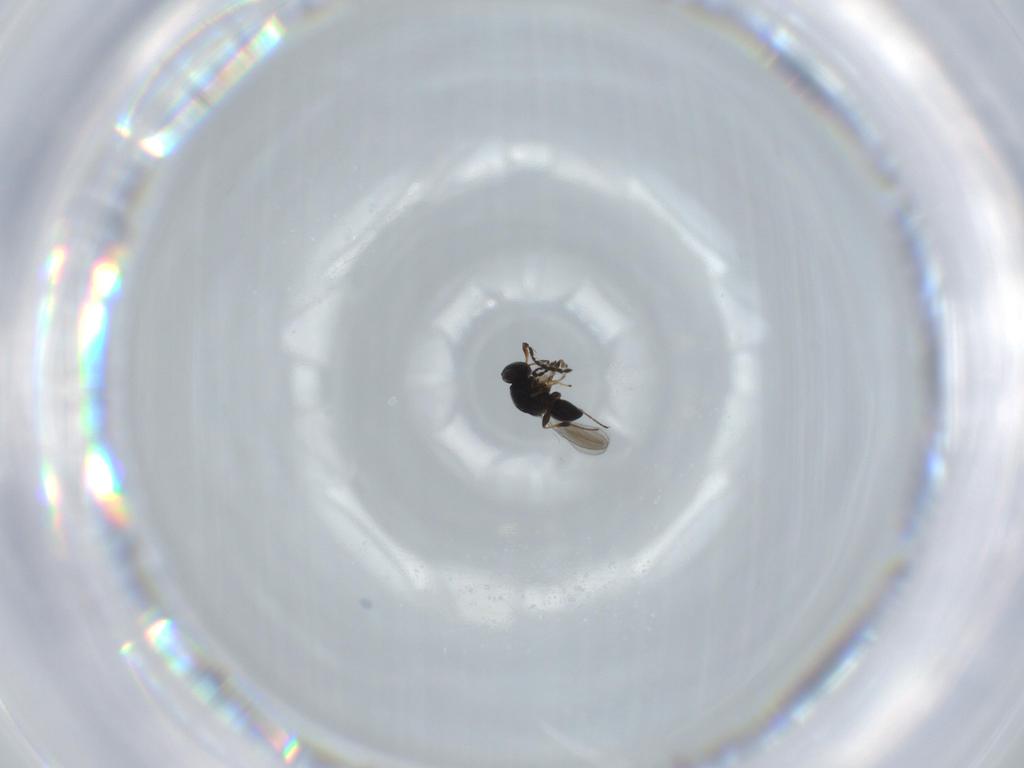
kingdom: Animalia
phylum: Arthropoda
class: Insecta
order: Hymenoptera
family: Platygastridae
